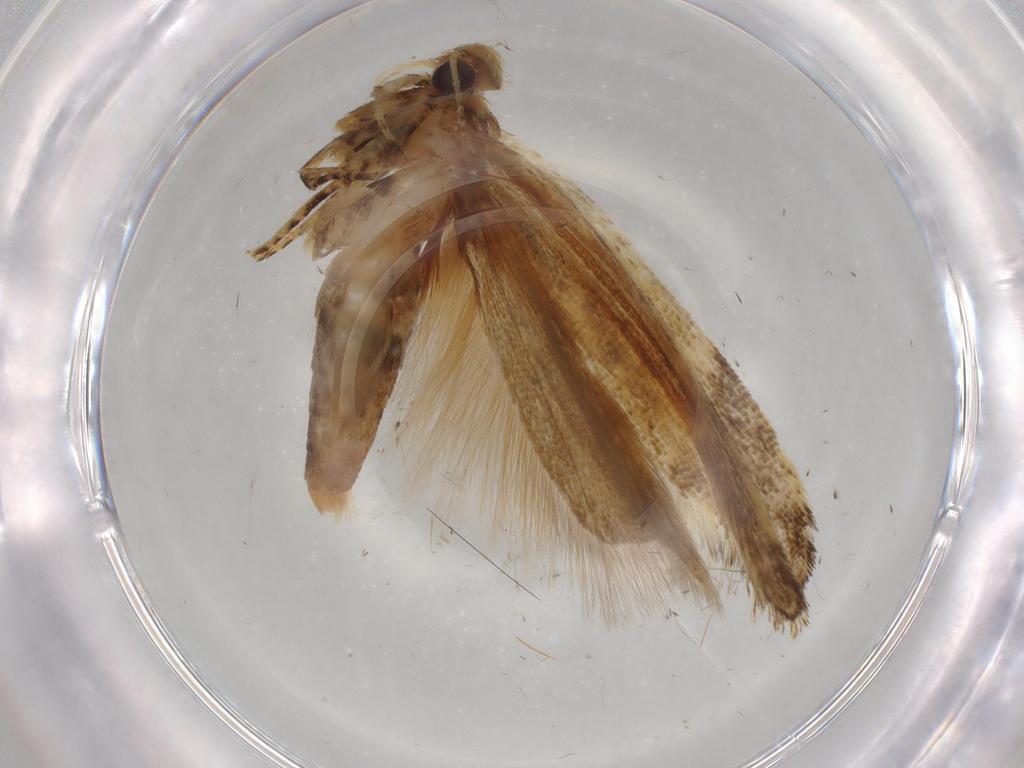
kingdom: Animalia
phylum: Arthropoda
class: Insecta
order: Lepidoptera
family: Gelechiidae
